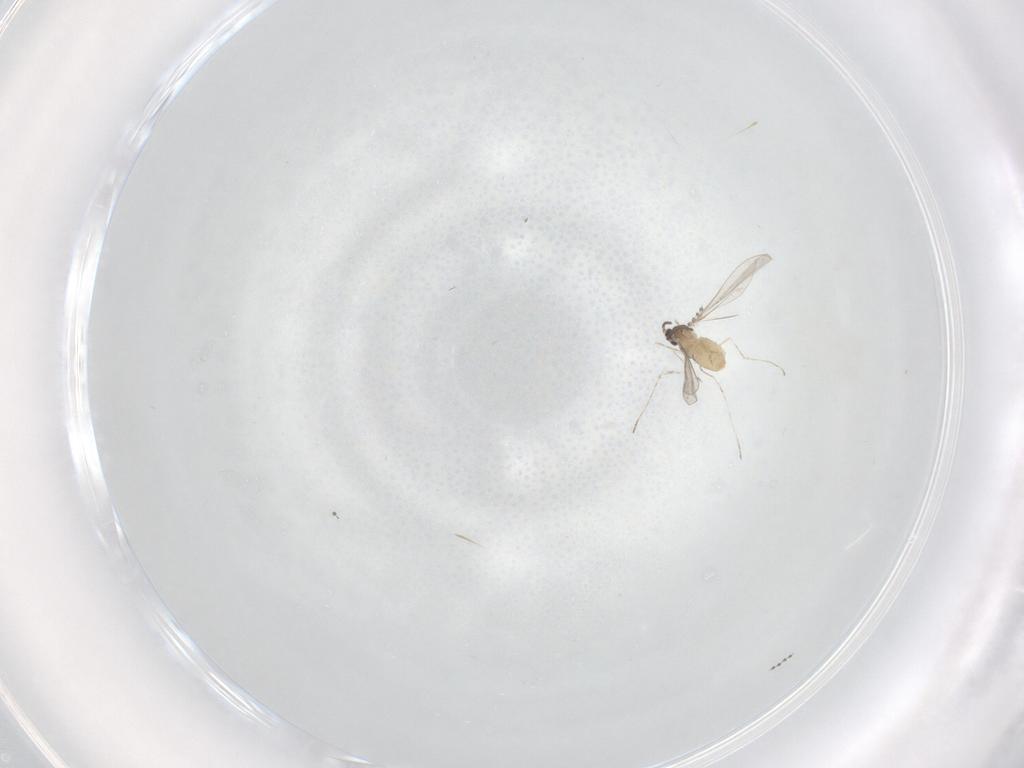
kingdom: Animalia
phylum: Arthropoda
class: Insecta
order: Diptera
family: Cecidomyiidae
